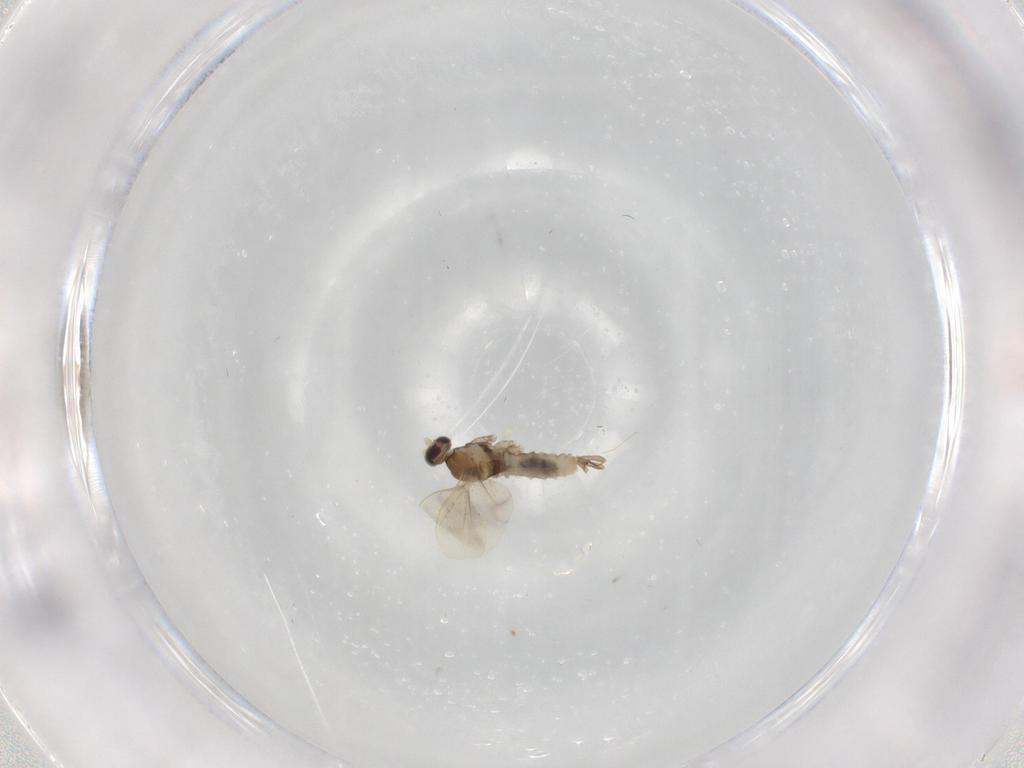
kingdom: Animalia
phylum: Arthropoda
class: Insecta
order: Diptera
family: Cecidomyiidae
